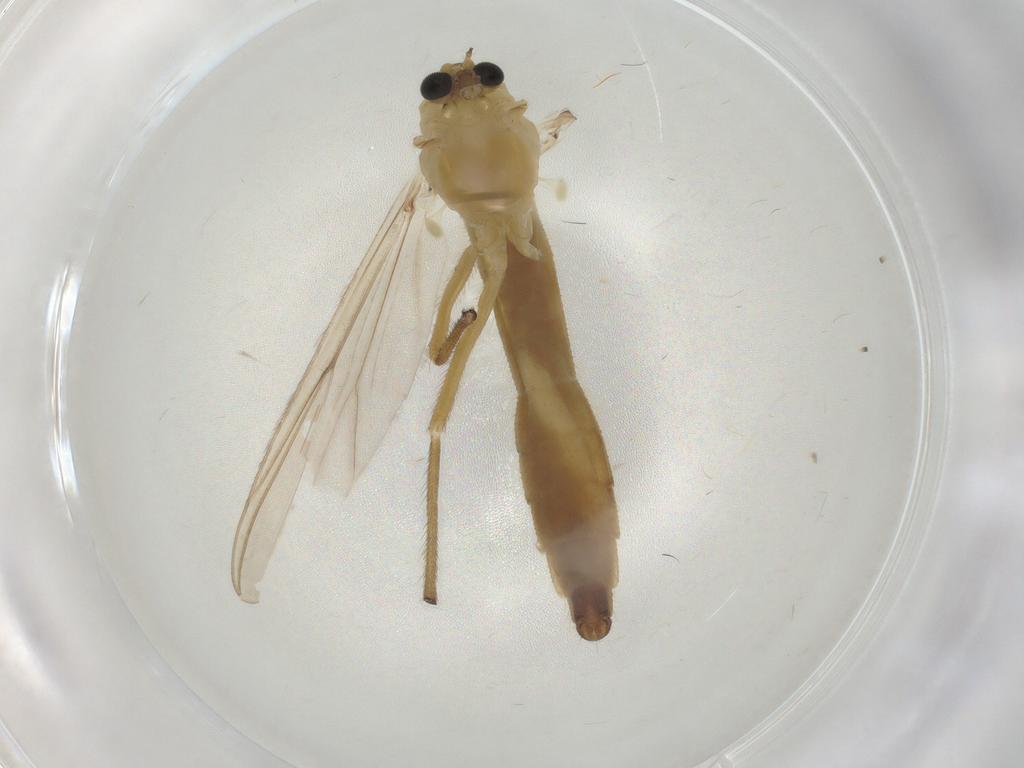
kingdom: Animalia
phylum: Arthropoda
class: Insecta
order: Diptera
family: Chironomidae
